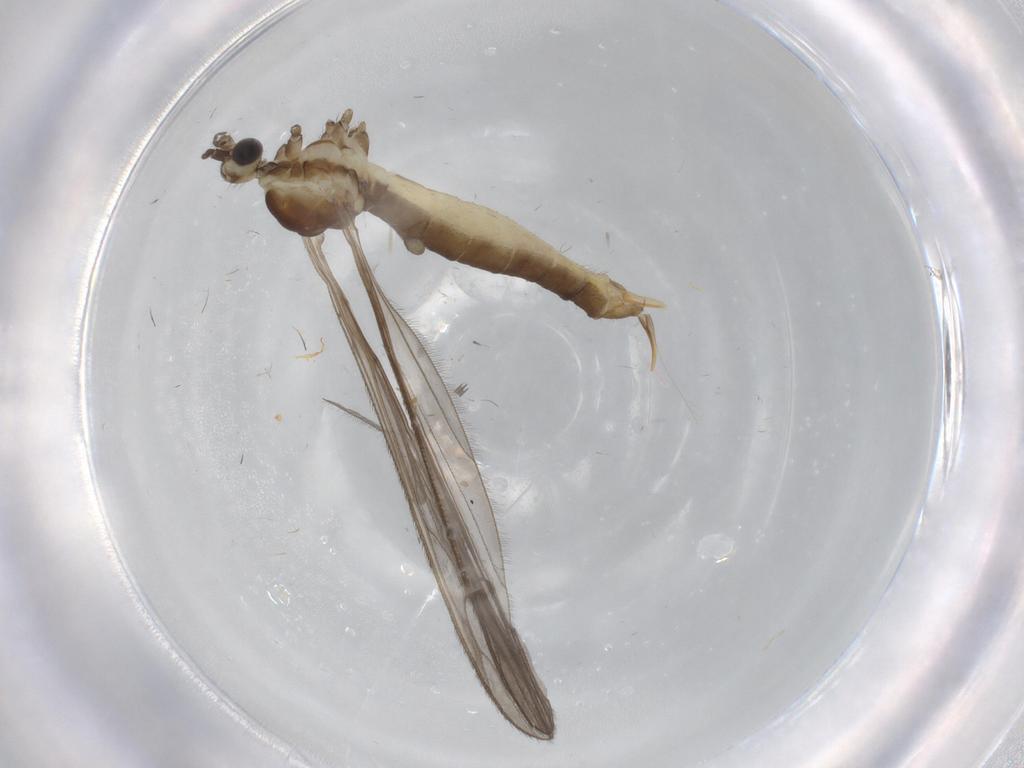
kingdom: Animalia
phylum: Arthropoda
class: Insecta
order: Diptera
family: Limoniidae
